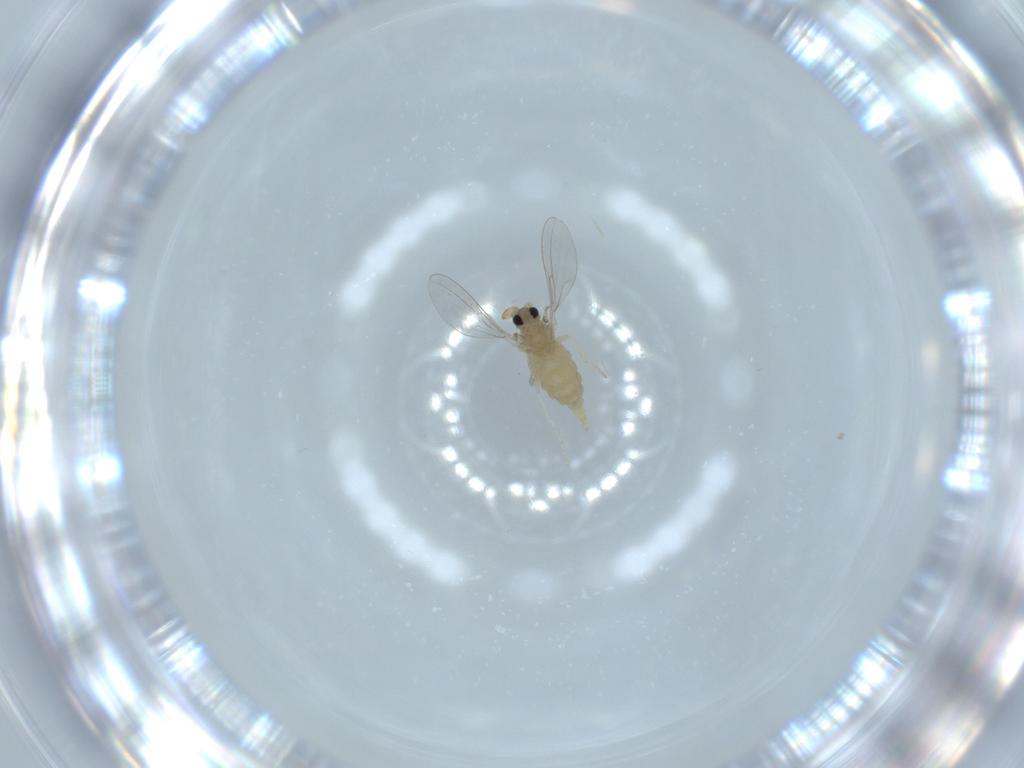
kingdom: Animalia
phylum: Arthropoda
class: Insecta
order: Diptera
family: Cecidomyiidae
